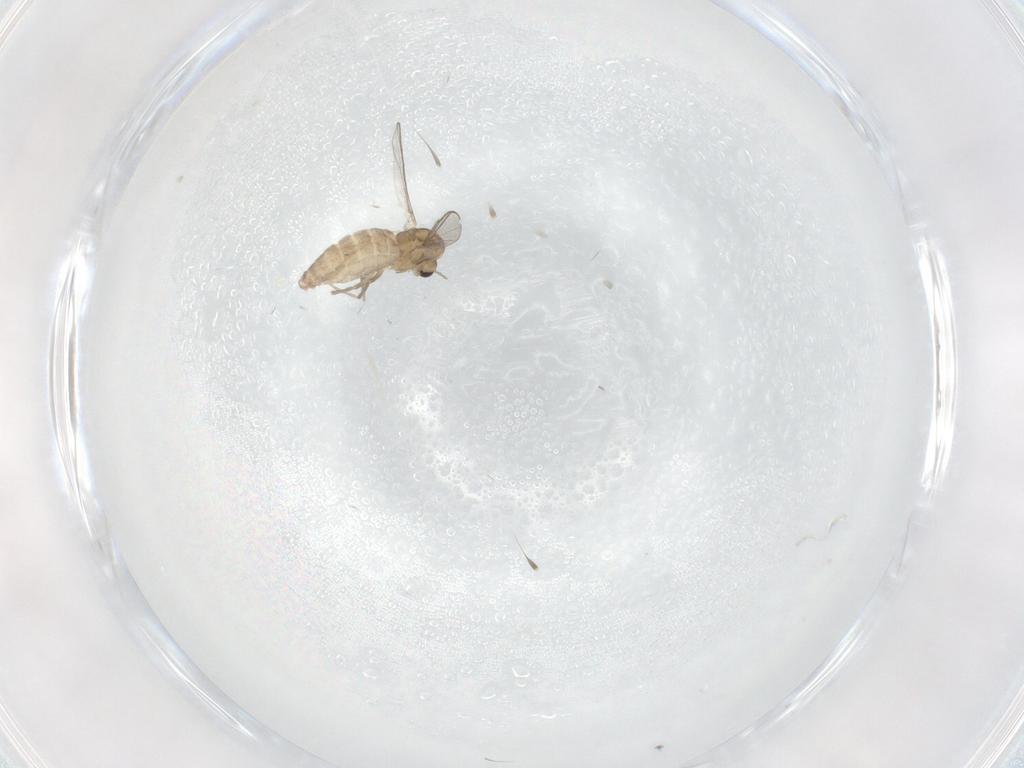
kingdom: Animalia
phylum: Arthropoda
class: Insecta
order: Diptera
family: Chironomidae
